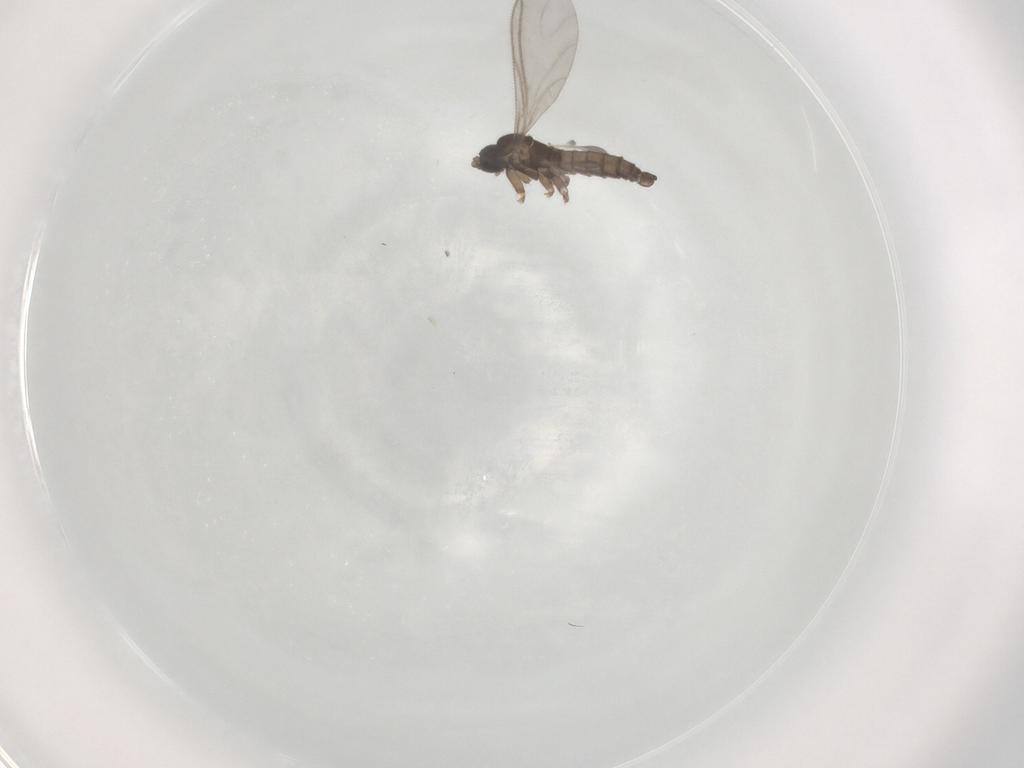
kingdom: Animalia
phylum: Arthropoda
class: Insecta
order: Diptera
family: Sciaridae
